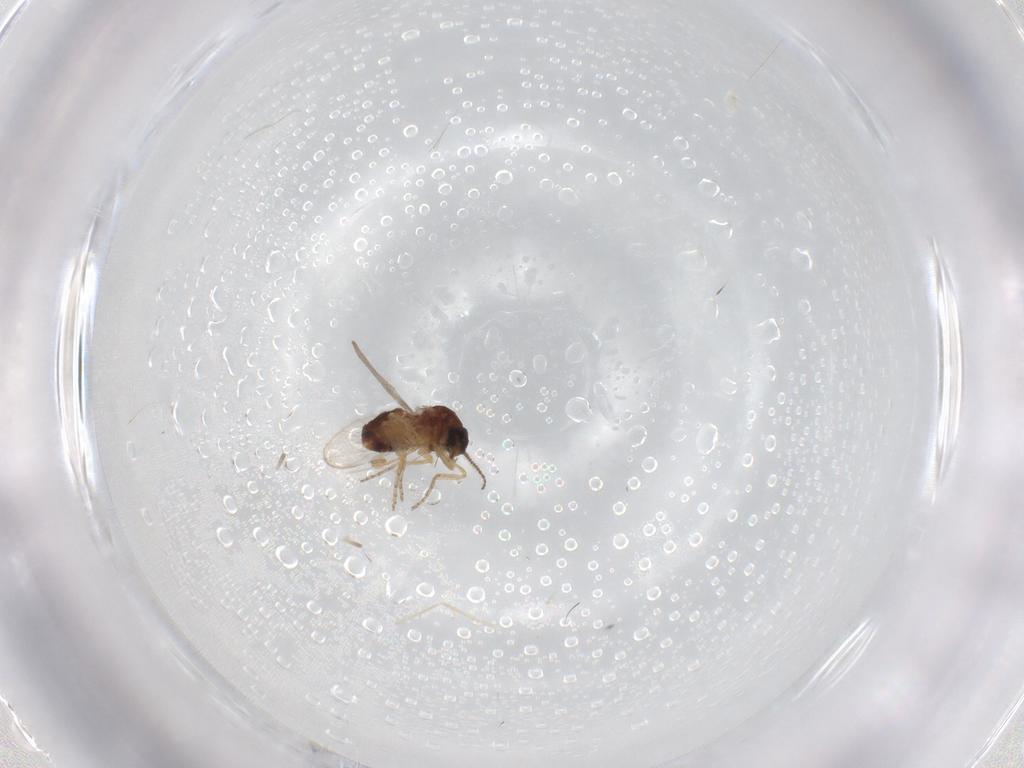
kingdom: Animalia
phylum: Arthropoda
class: Insecta
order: Diptera
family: Ceratopogonidae
